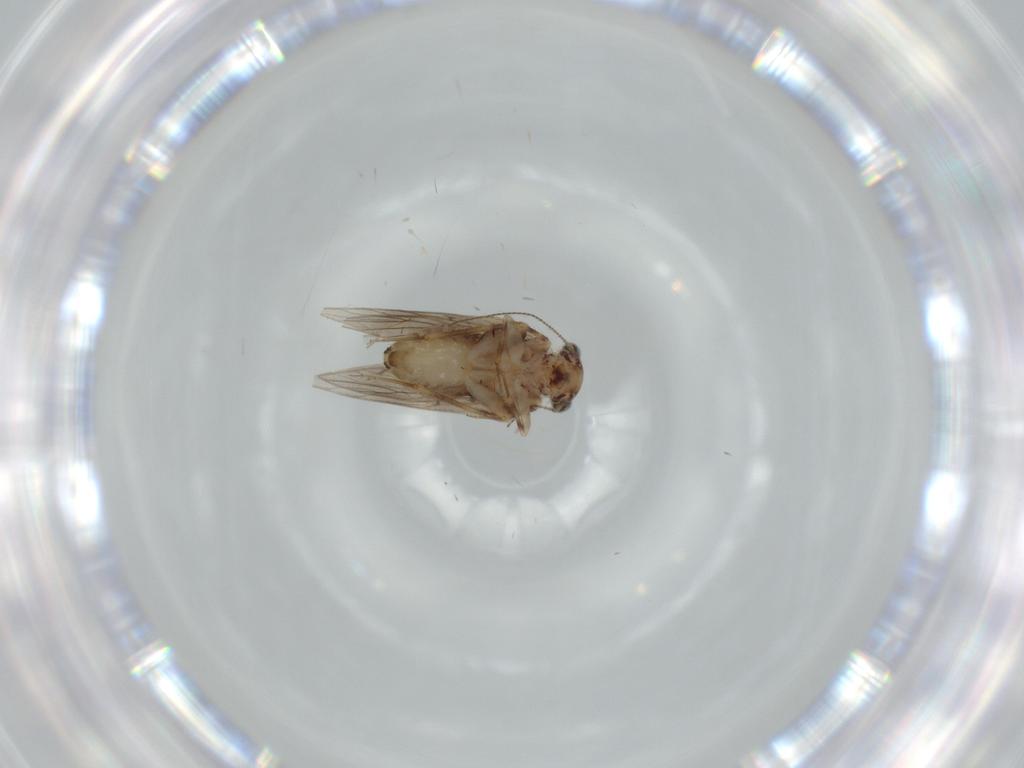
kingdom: Animalia
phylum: Arthropoda
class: Insecta
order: Psocodea
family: Lepidopsocidae
